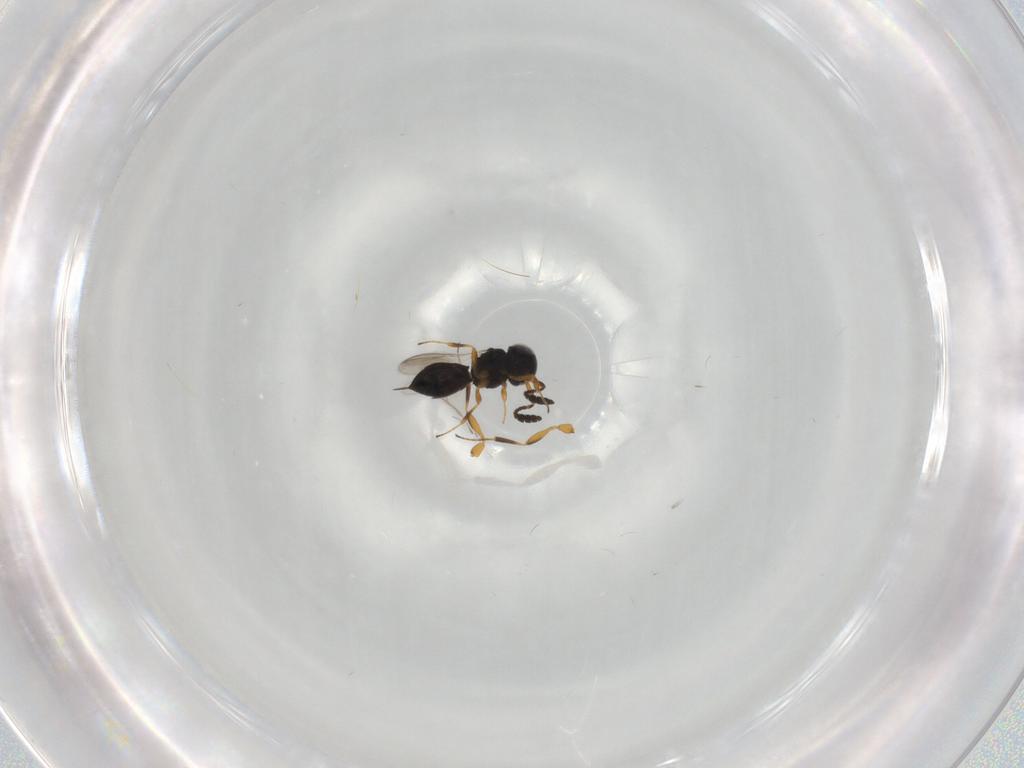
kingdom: Animalia
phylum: Arthropoda
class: Insecta
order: Hymenoptera
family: Scelionidae
